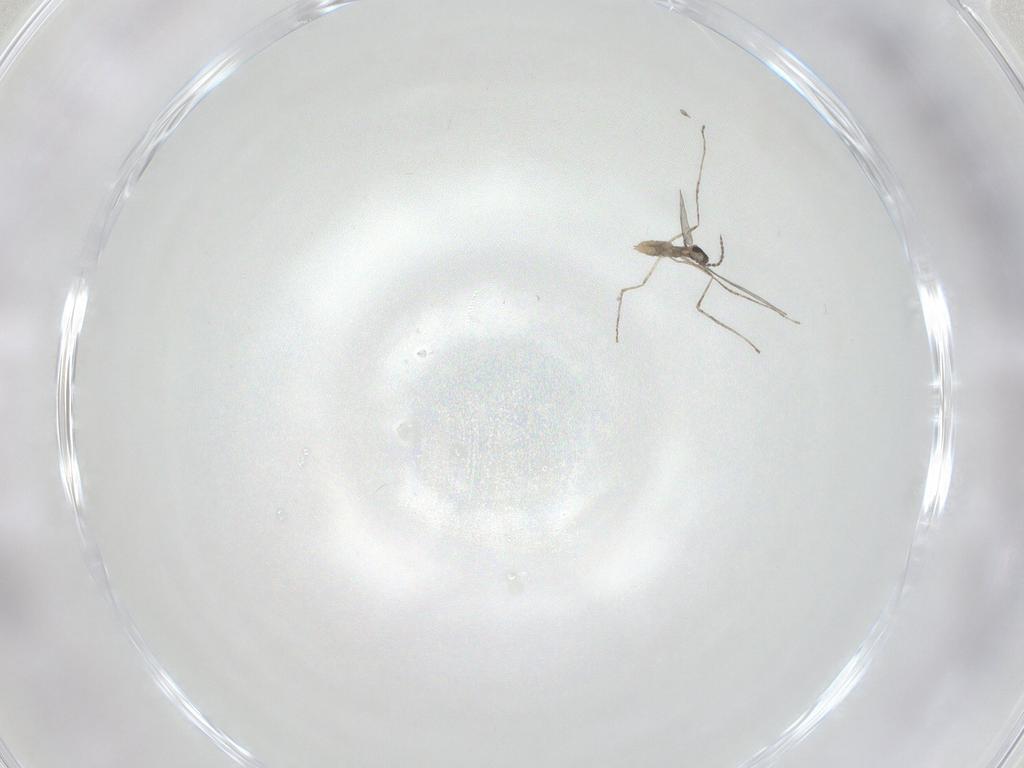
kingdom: Animalia
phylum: Arthropoda
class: Insecta
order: Diptera
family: Cecidomyiidae
